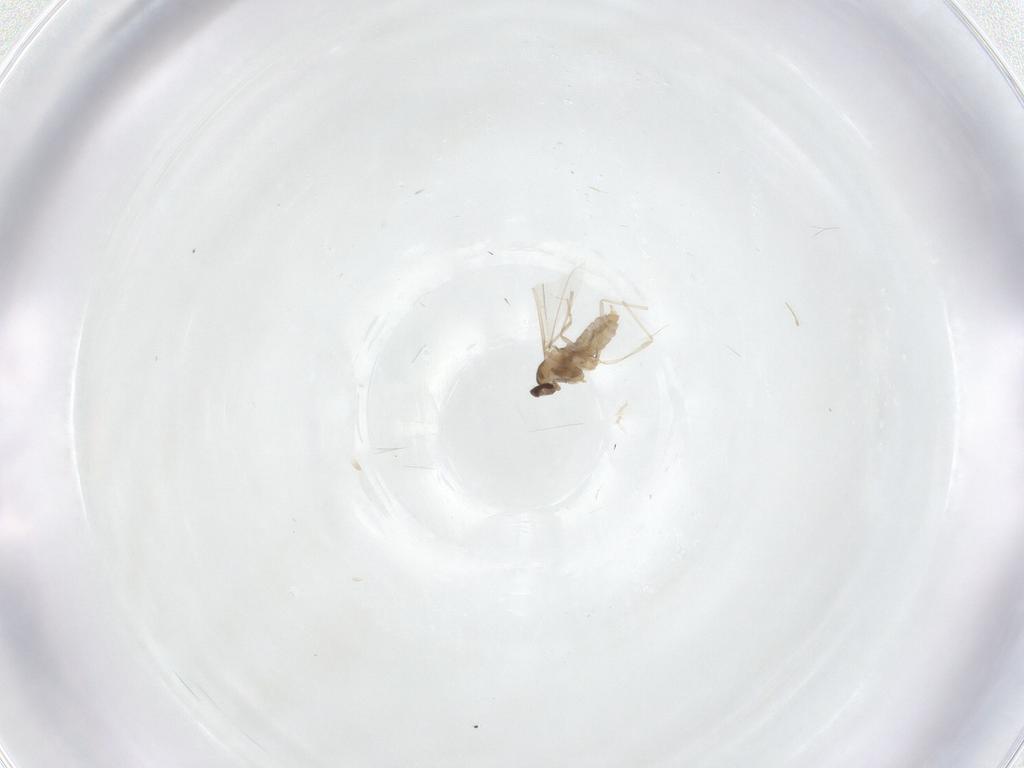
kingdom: Animalia
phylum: Arthropoda
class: Insecta
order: Diptera
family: Cecidomyiidae
